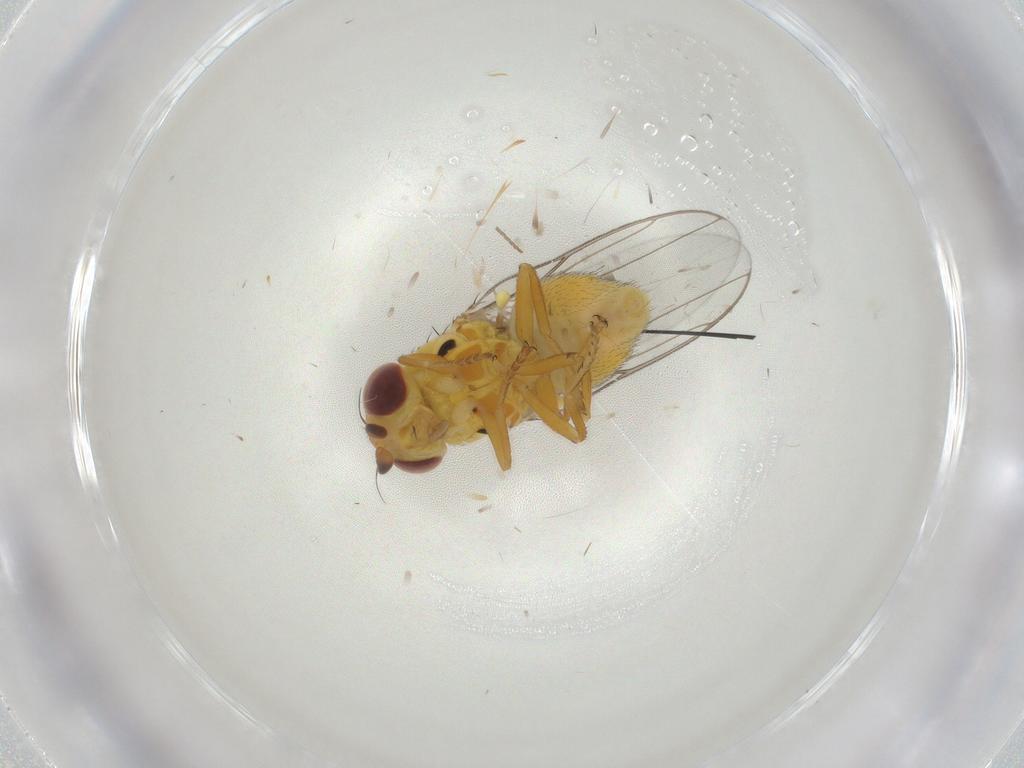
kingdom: Animalia
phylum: Arthropoda
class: Insecta
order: Diptera
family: Chloropidae
